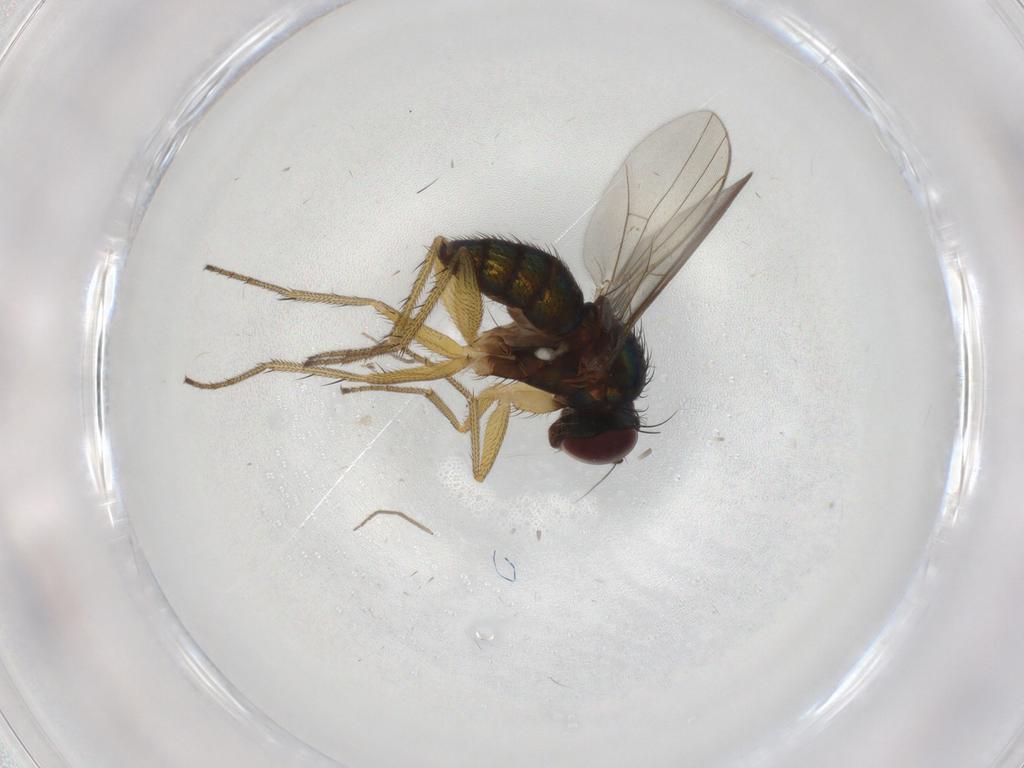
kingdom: Animalia
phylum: Arthropoda
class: Insecta
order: Diptera
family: Chironomidae
